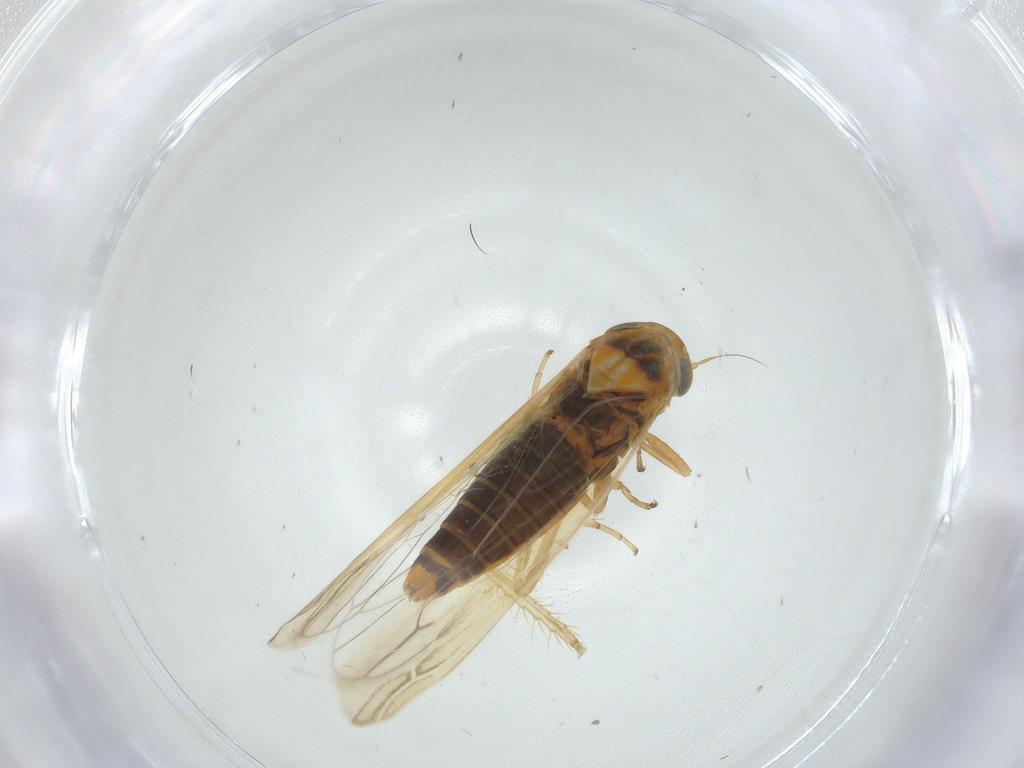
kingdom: Animalia
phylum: Arthropoda
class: Insecta
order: Hemiptera
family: Cicadellidae
